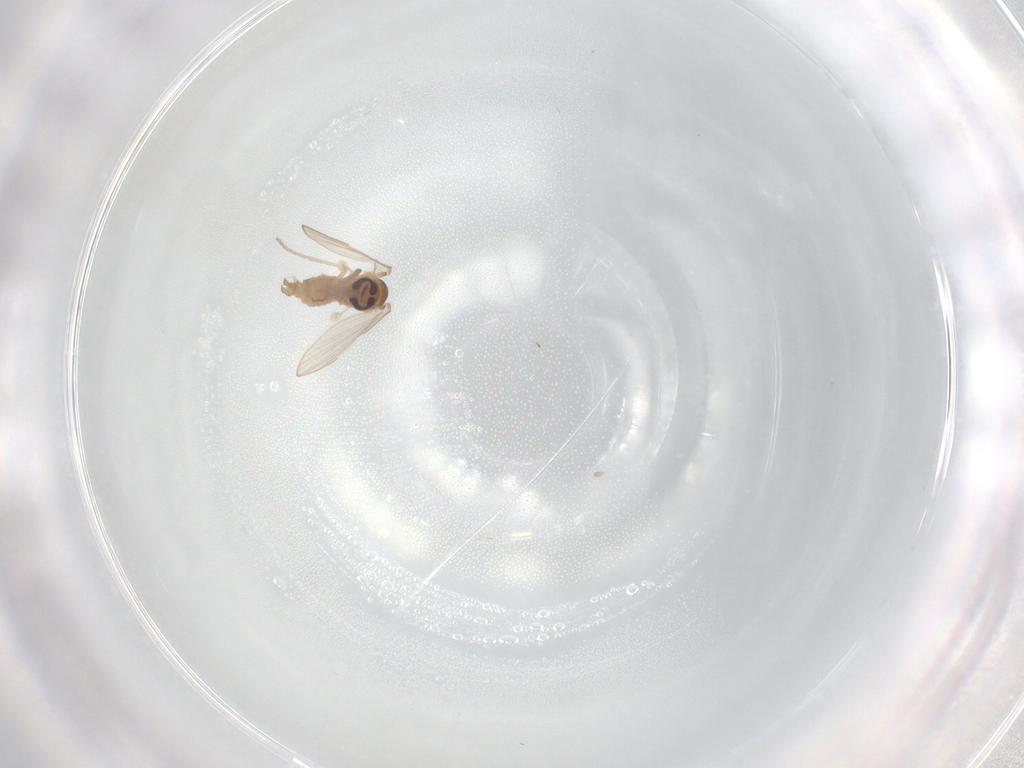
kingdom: Animalia
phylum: Arthropoda
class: Insecta
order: Diptera
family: Psychodidae
